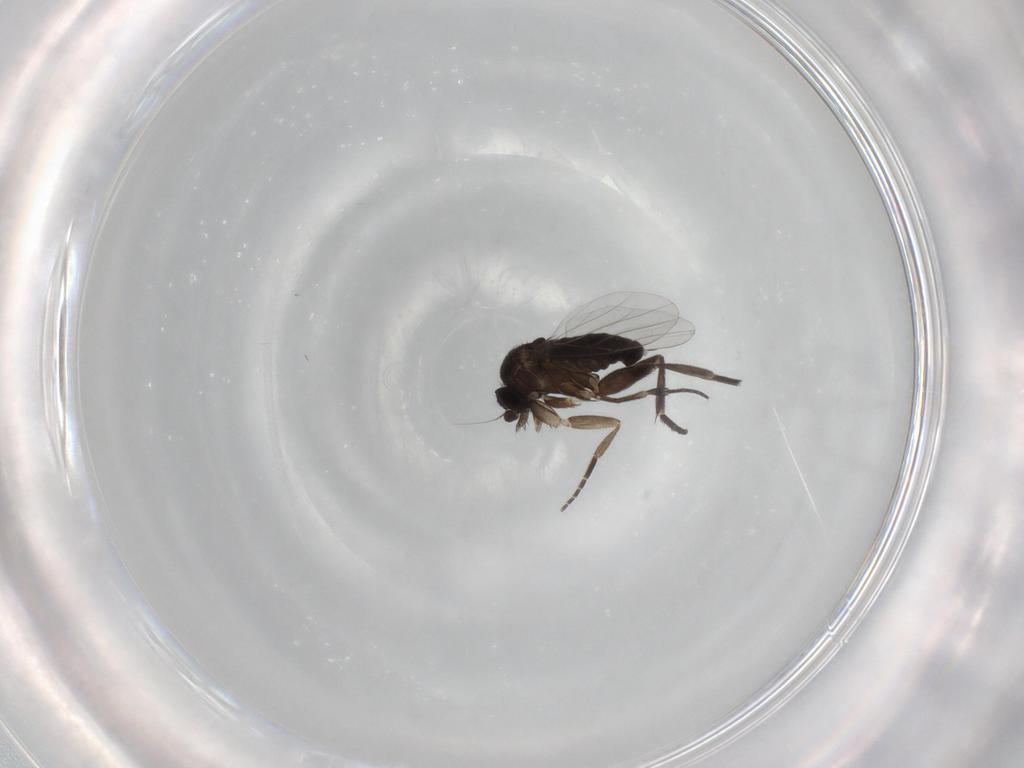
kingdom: Animalia
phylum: Arthropoda
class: Insecta
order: Diptera
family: Phoridae
